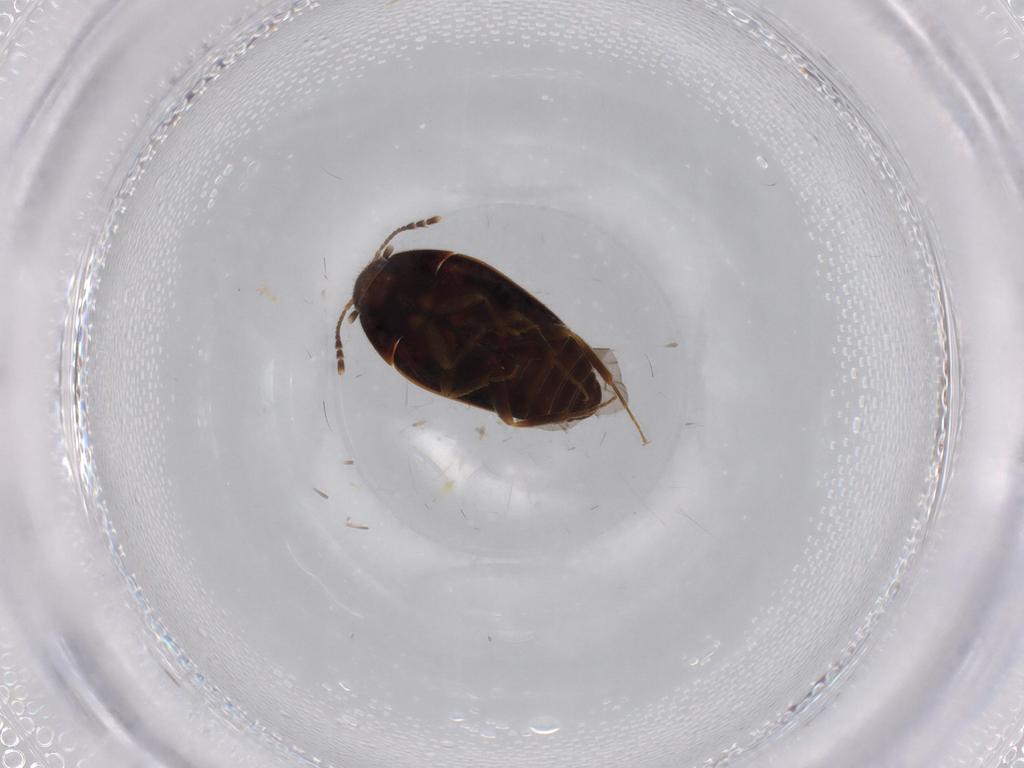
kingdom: Animalia
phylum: Arthropoda
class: Insecta
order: Coleoptera
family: Mycetophagidae
